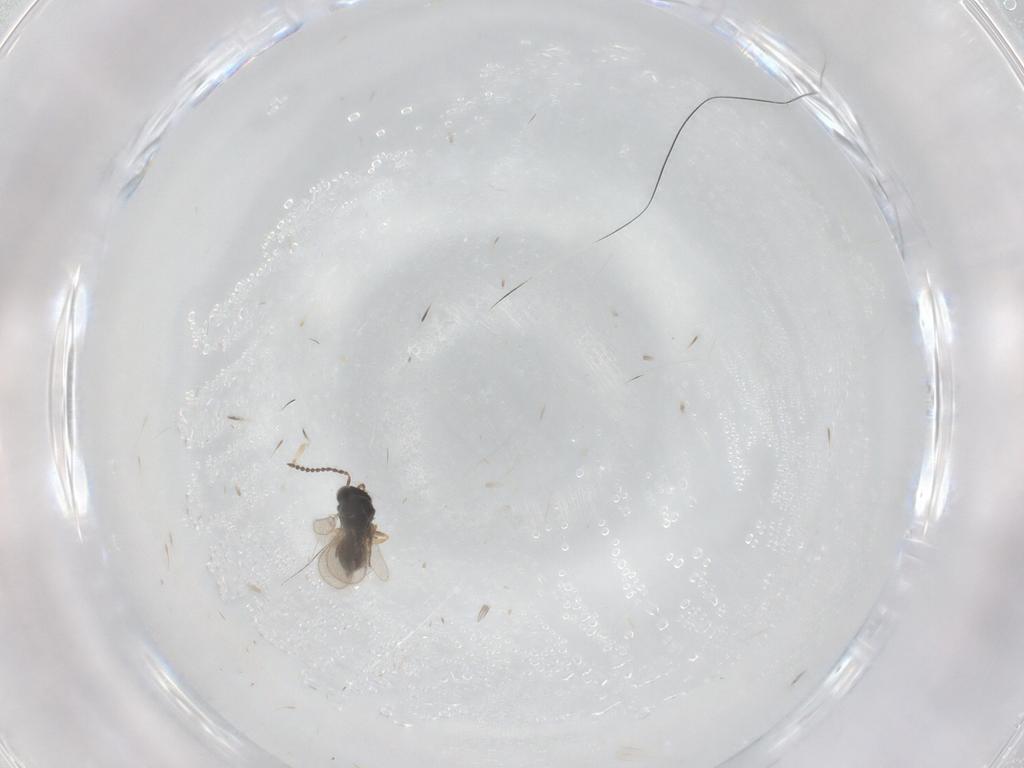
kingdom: Animalia
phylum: Arthropoda
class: Insecta
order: Hymenoptera
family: Scelionidae
